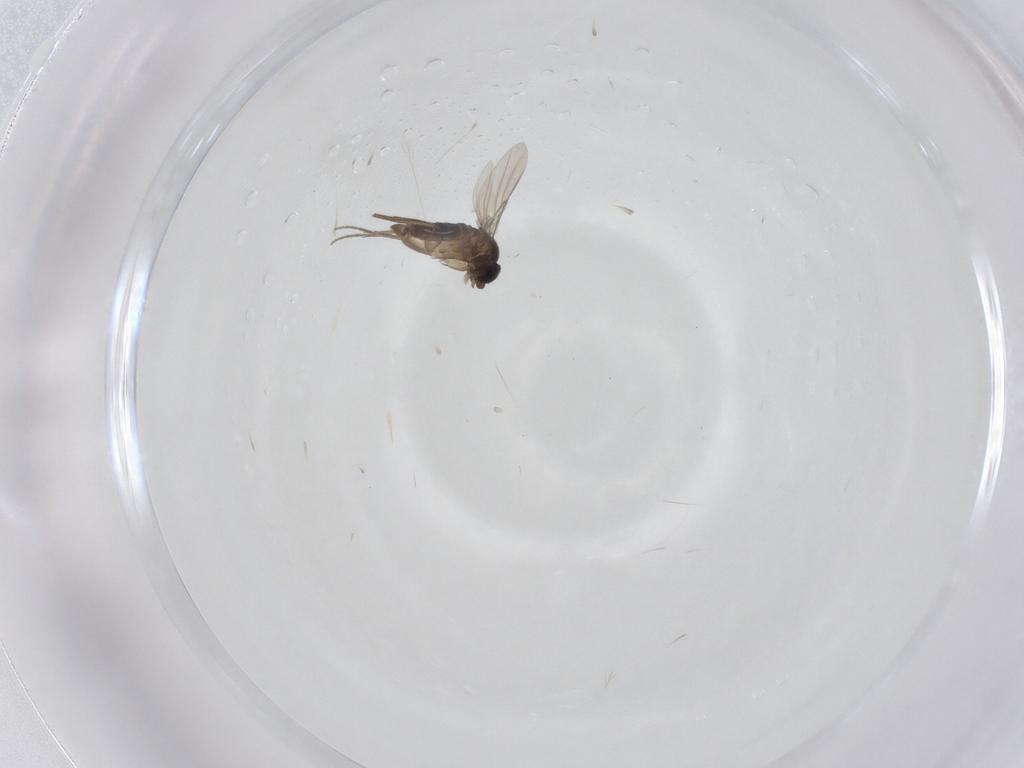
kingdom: Animalia
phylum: Arthropoda
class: Insecta
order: Diptera
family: Phoridae
